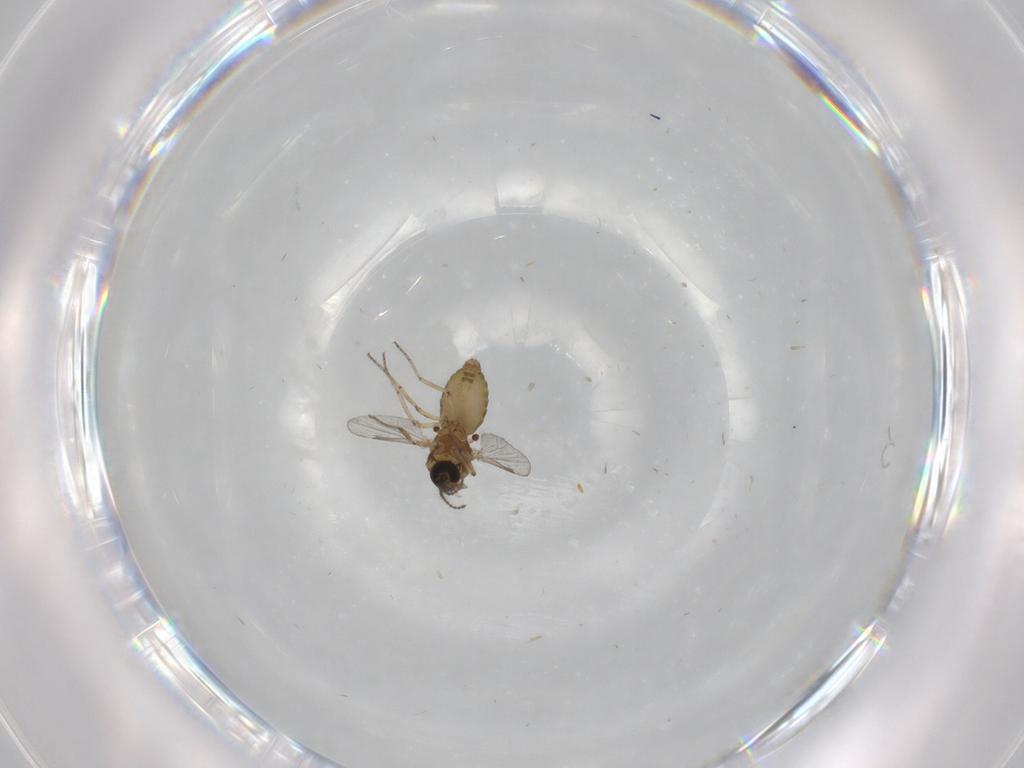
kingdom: Animalia
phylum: Arthropoda
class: Insecta
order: Diptera
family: Ceratopogonidae
